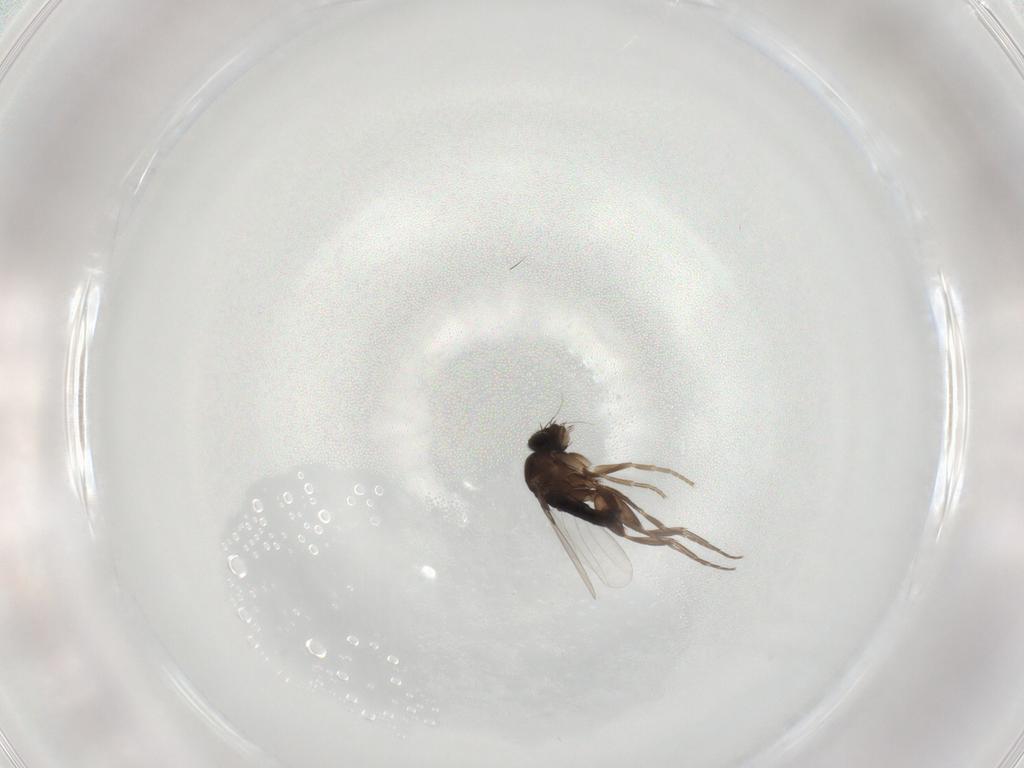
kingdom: Animalia
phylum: Arthropoda
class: Insecta
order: Diptera
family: Phoridae
